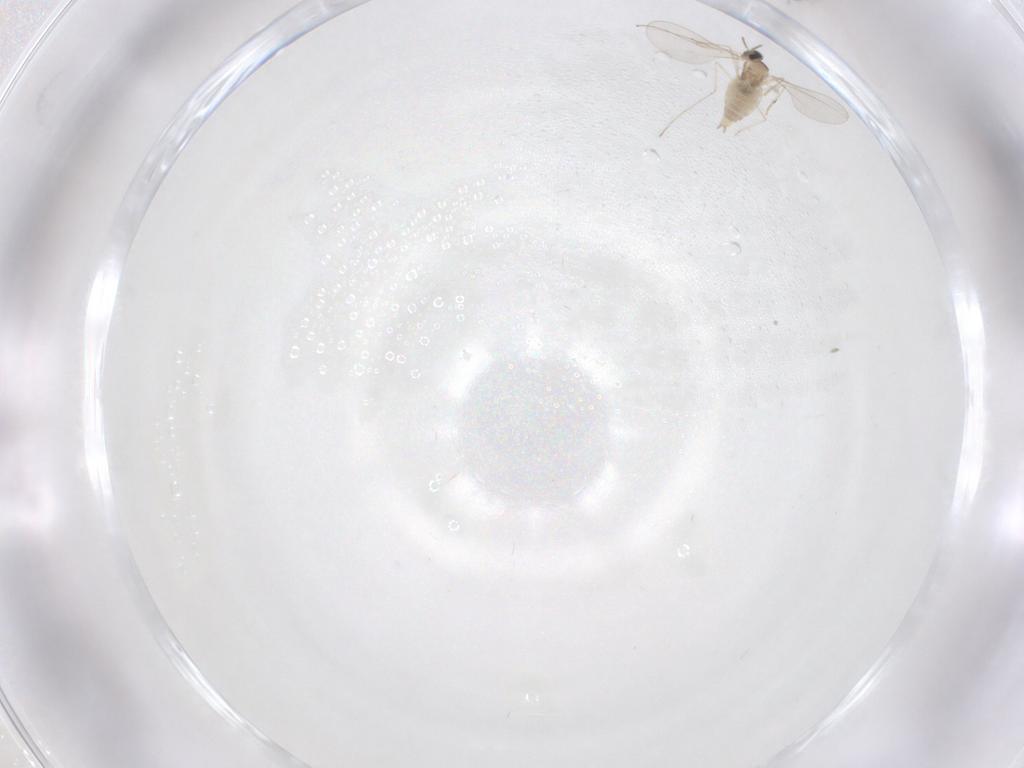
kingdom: Animalia
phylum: Arthropoda
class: Insecta
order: Diptera
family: Cecidomyiidae
